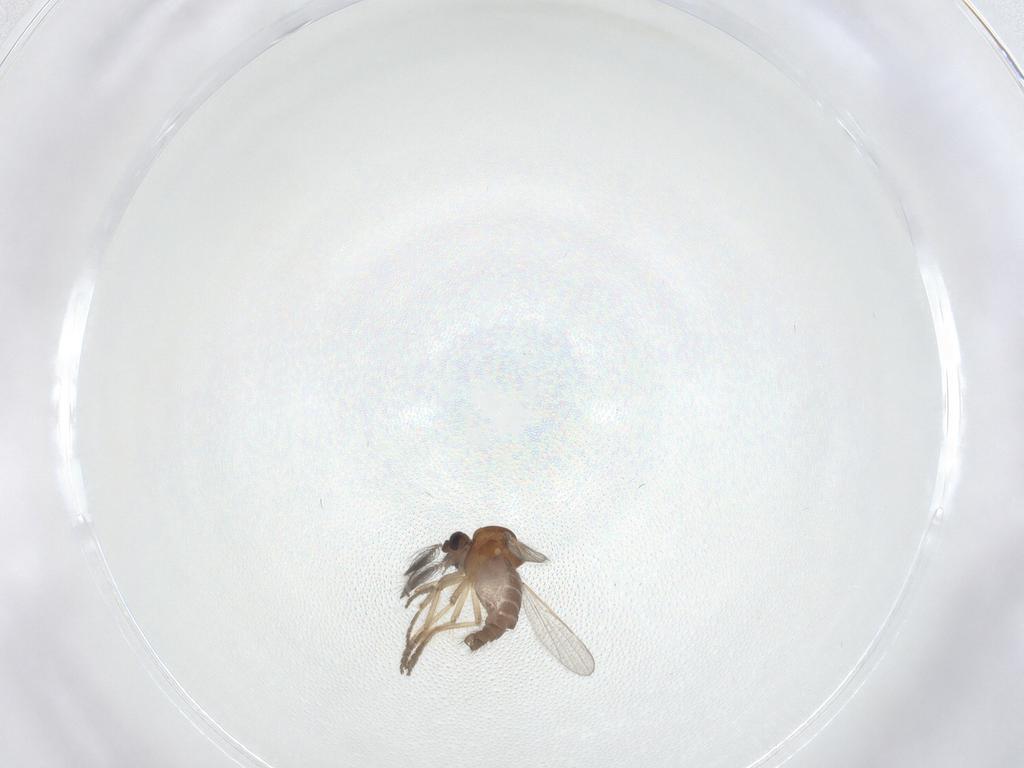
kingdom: Animalia
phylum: Arthropoda
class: Insecta
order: Diptera
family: Ceratopogonidae
